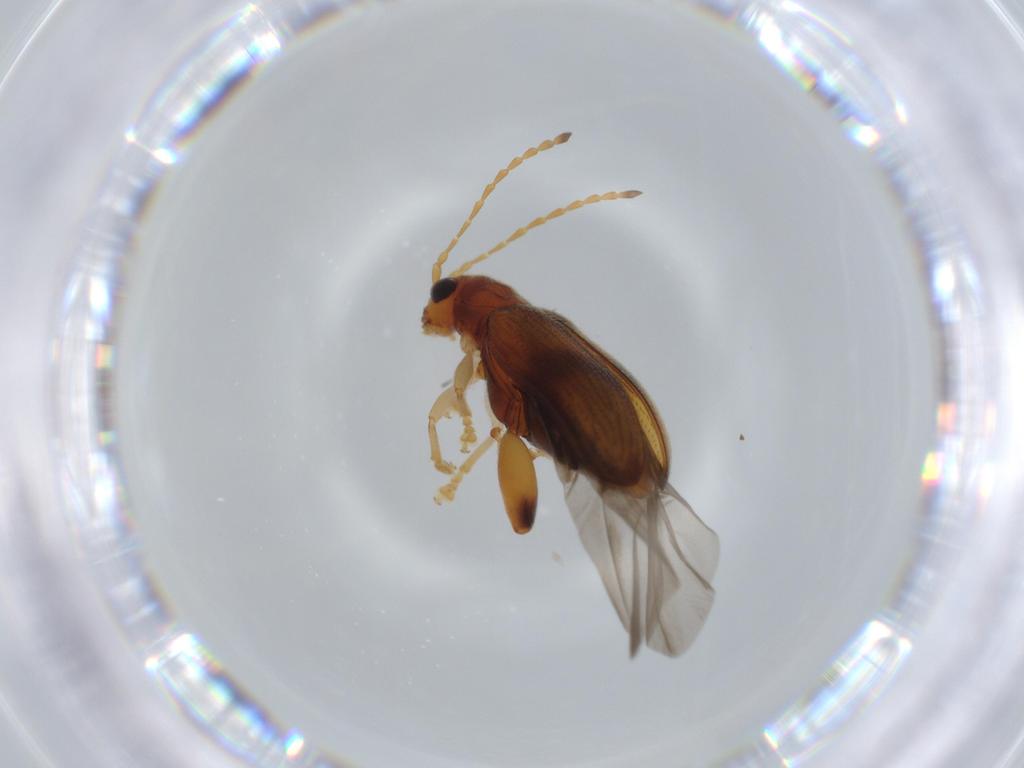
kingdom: Animalia
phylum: Arthropoda
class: Insecta
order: Coleoptera
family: Chrysomelidae
